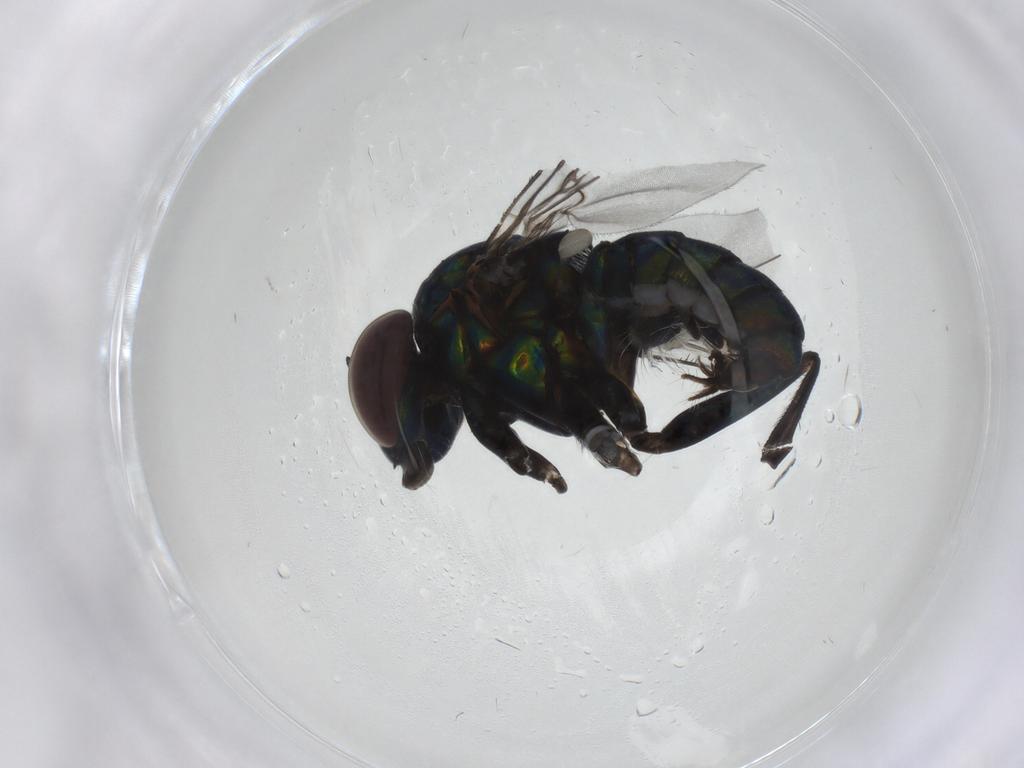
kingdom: Animalia
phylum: Arthropoda
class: Insecta
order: Diptera
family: Dolichopodidae
